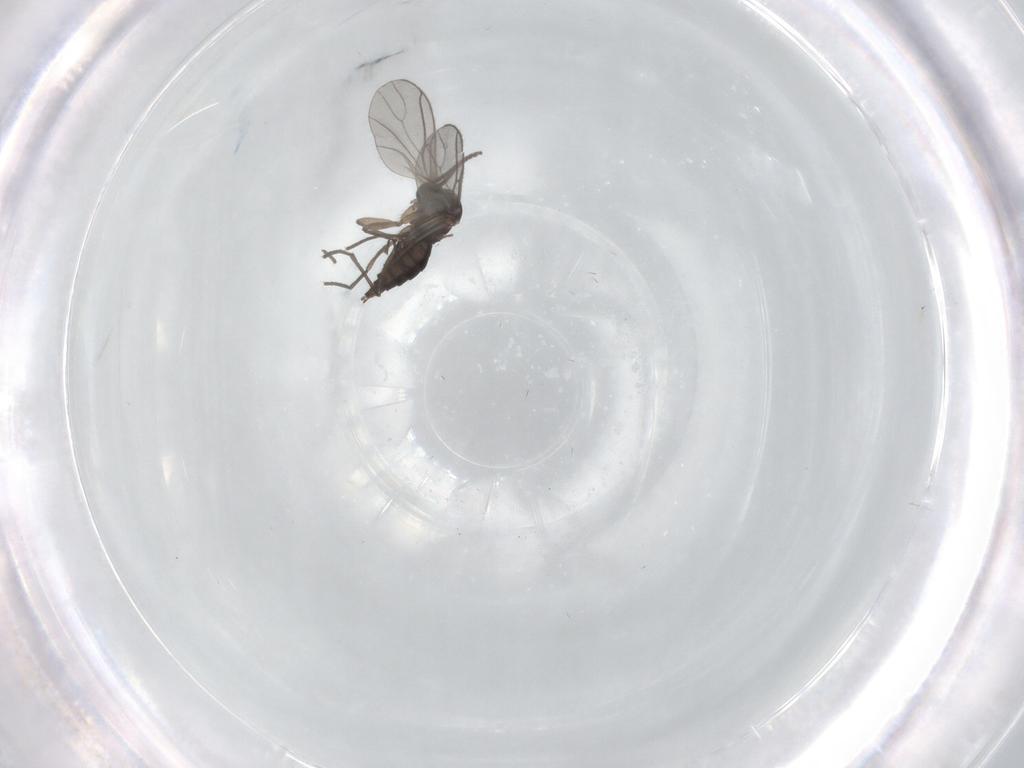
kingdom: Animalia
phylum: Arthropoda
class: Insecta
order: Diptera
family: Sciaridae
